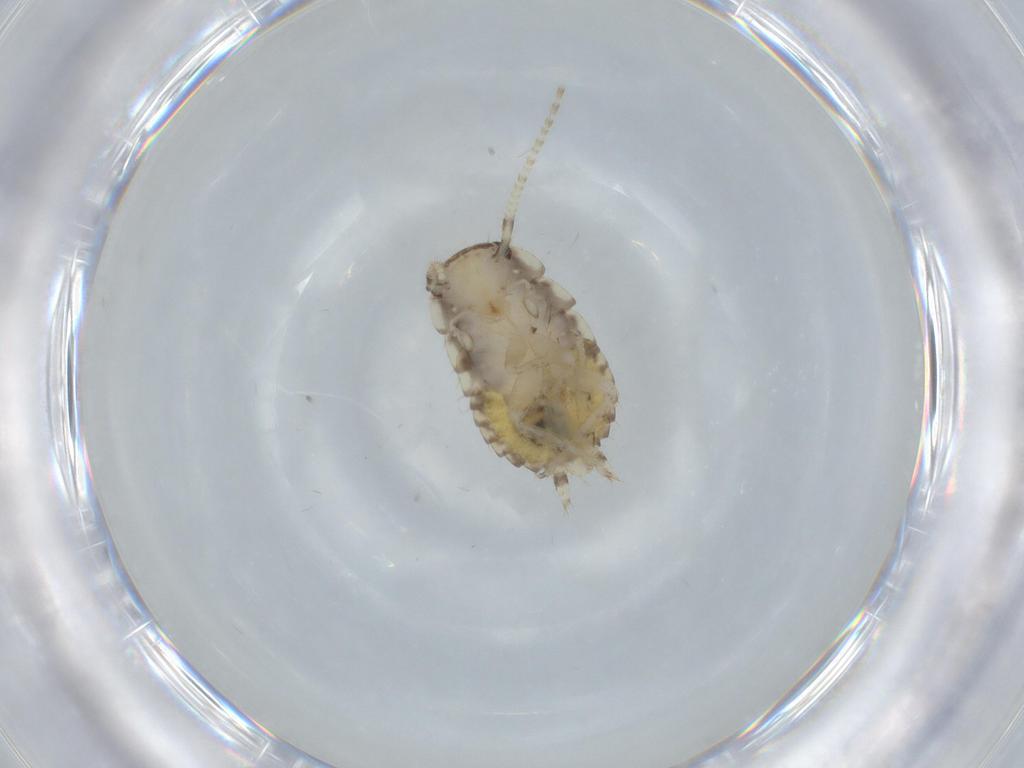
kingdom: Animalia
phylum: Arthropoda
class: Insecta
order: Blattodea
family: Ectobiidae
